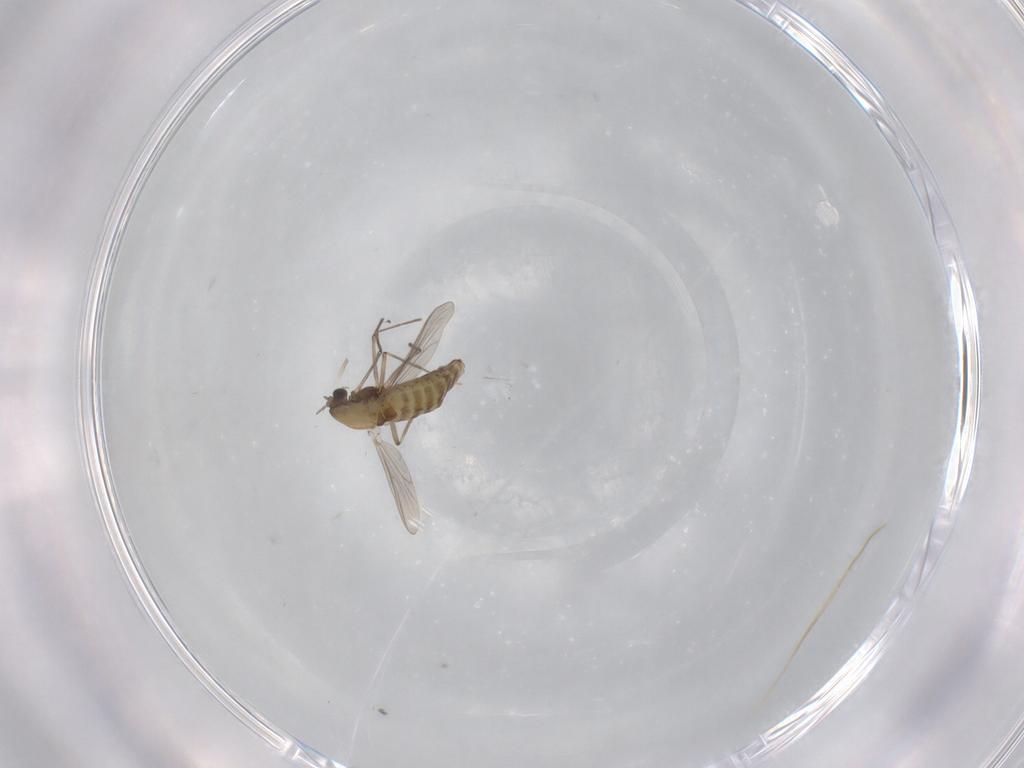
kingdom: Animalia
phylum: Arthropoda
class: Insecta
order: Diptera
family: Chironomidae
